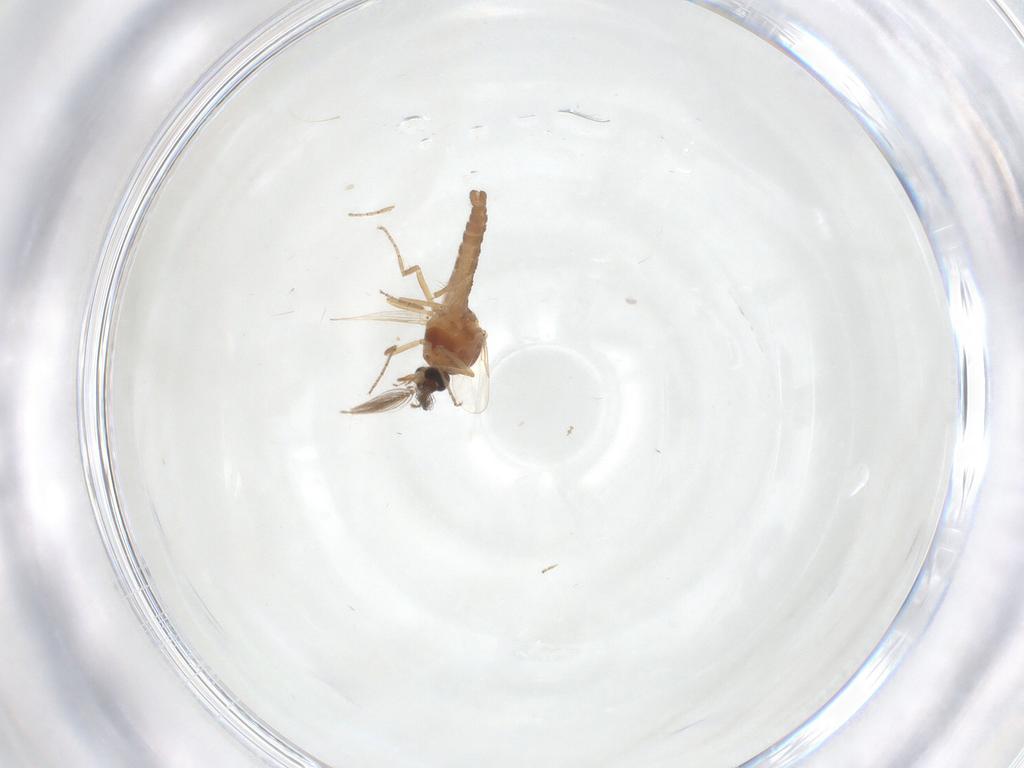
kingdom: Animalia
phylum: Arthropoda
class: Insecta
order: Diptera
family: Ceratopogonidae
